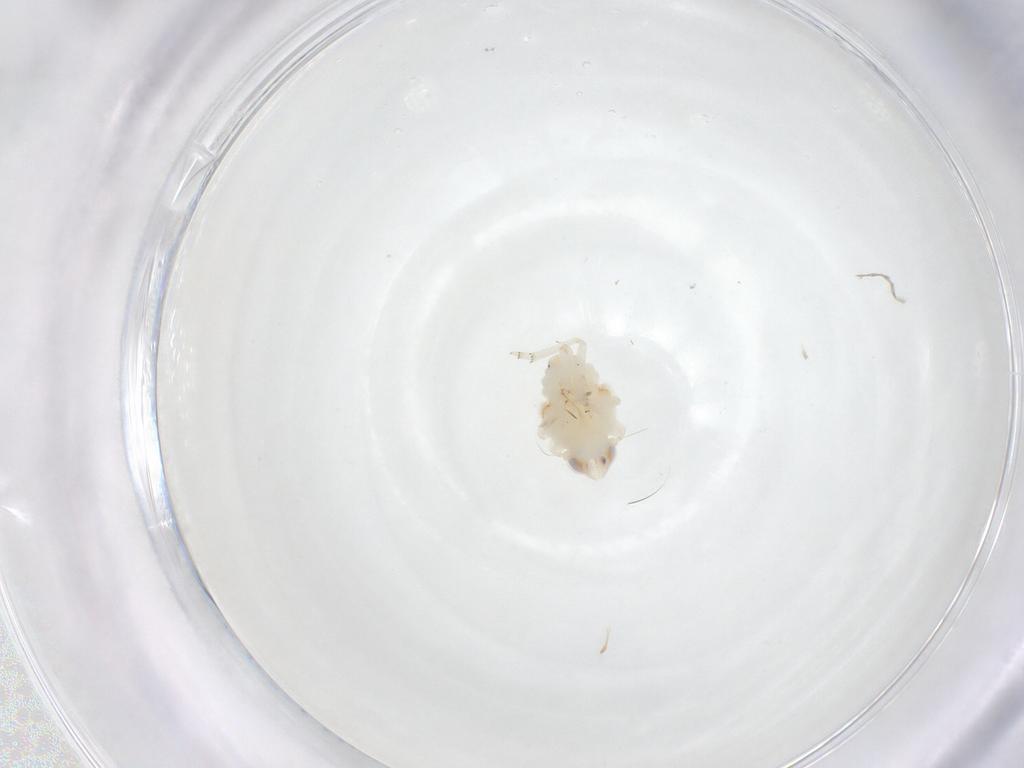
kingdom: Animalia
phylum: Arthropoda
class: Insecta
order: Hemiptera
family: Nogodinidae
